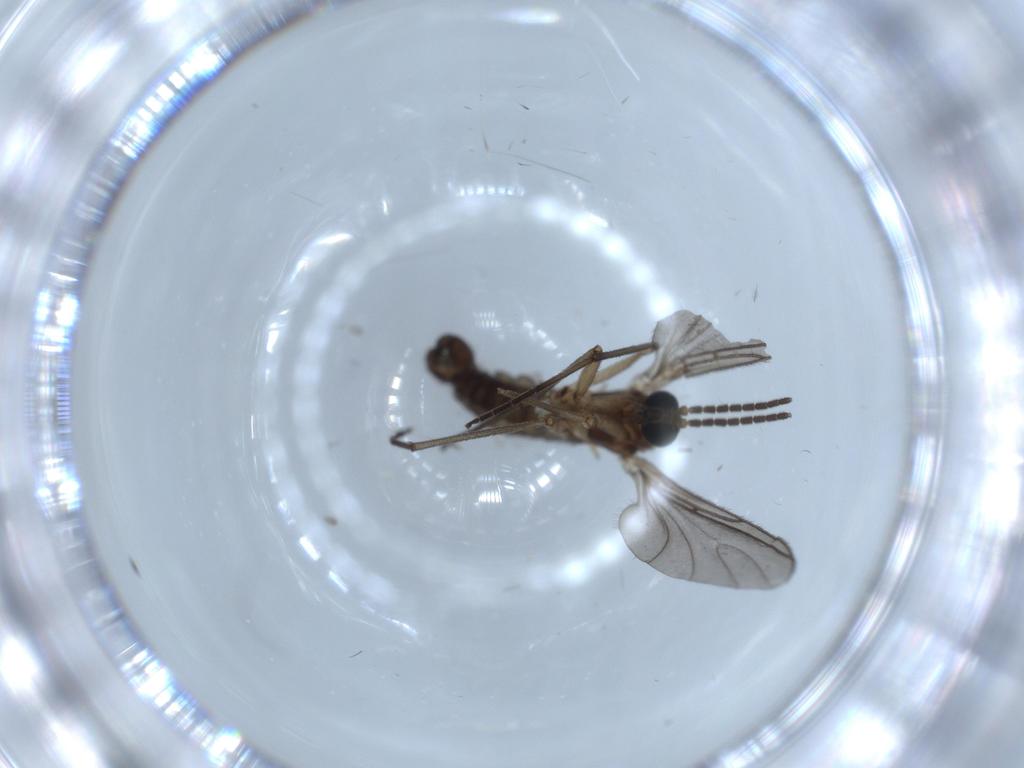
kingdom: Animalia
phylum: Arthropoda
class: Insecta
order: Diptera
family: Sciaridae
